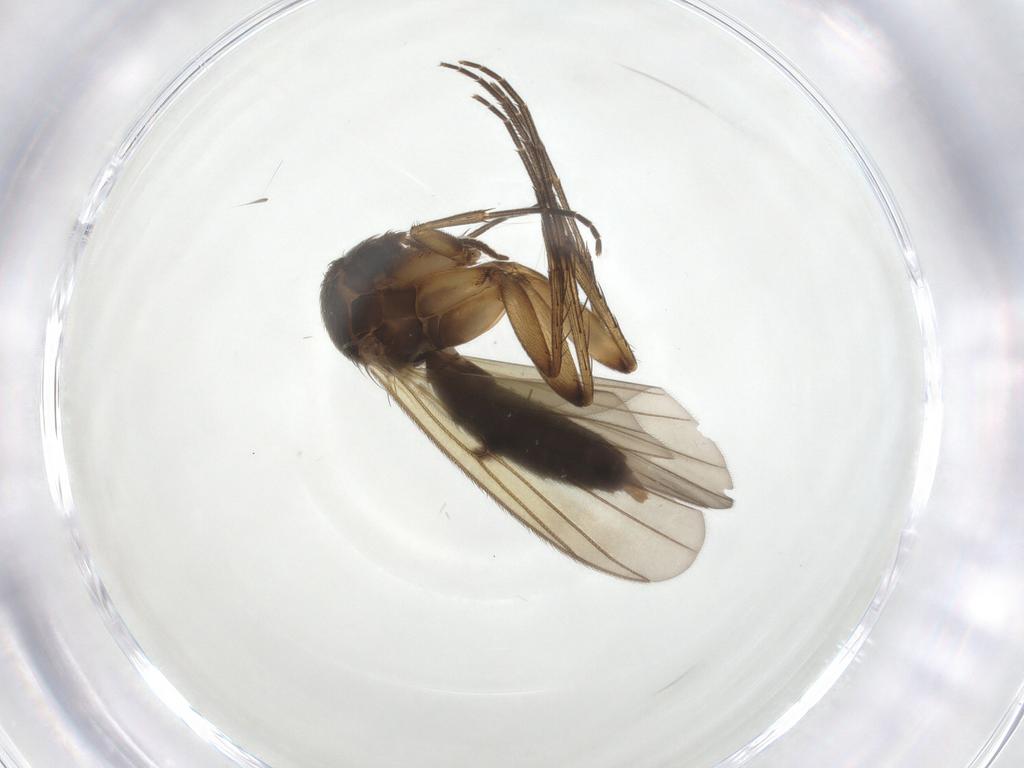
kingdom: Animalia
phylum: Arthropoda
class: Insecta
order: Diptera
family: Mycetophilidae
